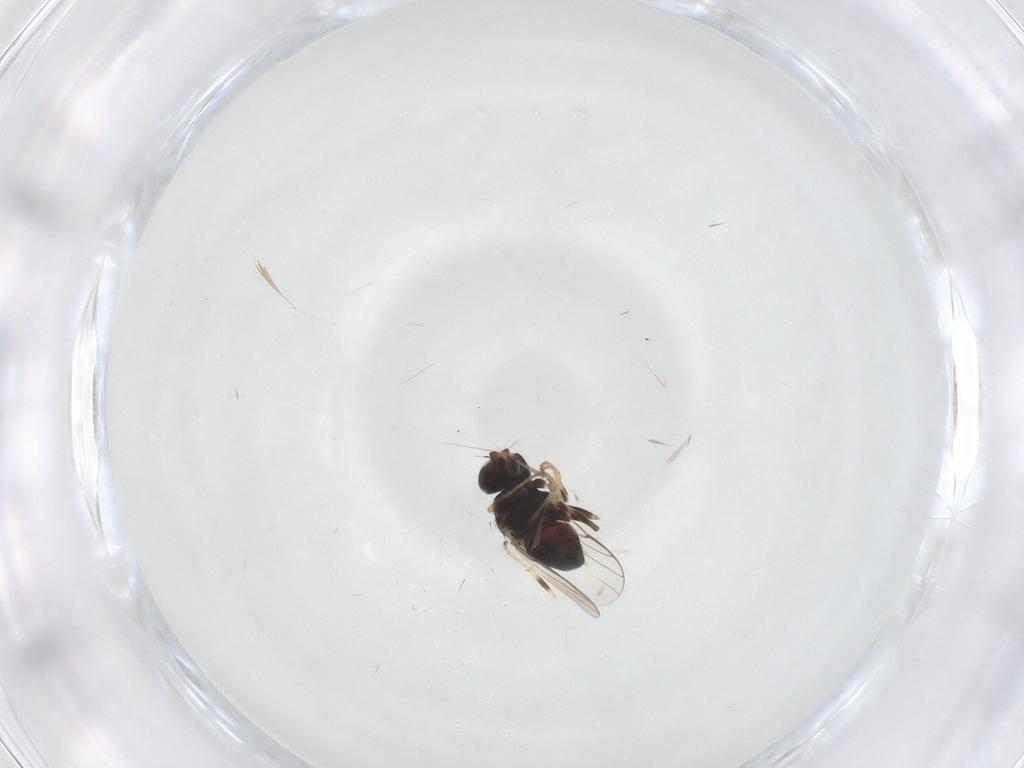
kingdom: Animalia
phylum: Arthropoda
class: Insecta
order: Diptera
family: Chloropidae
